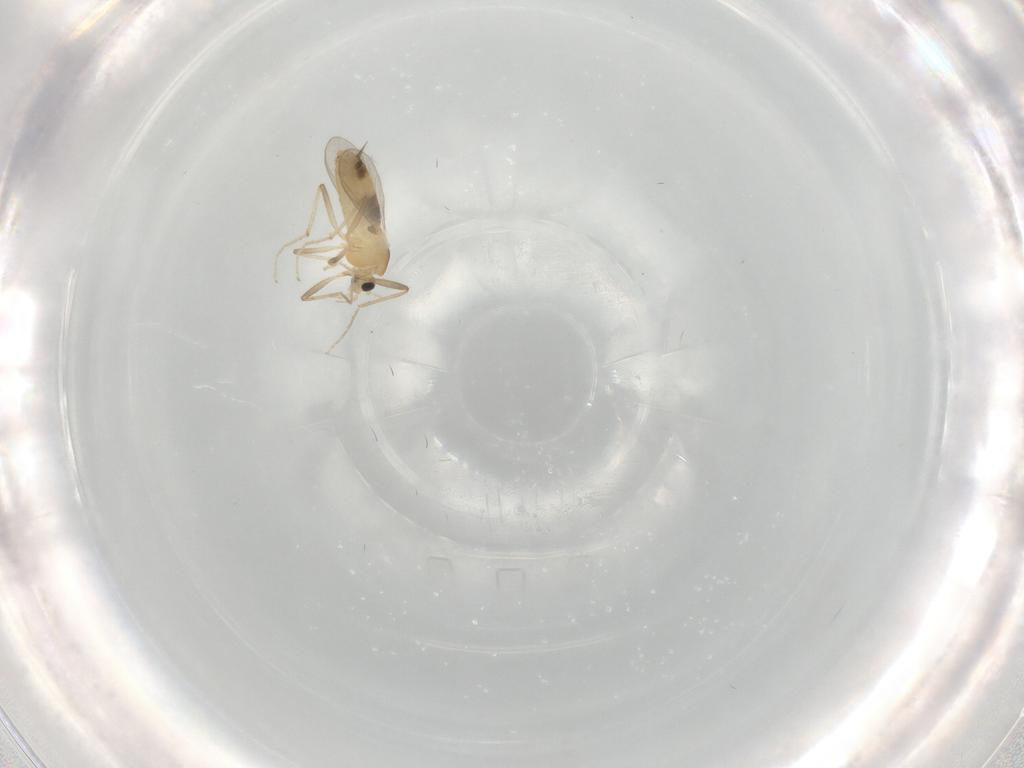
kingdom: Animalia
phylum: Arthropoda
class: Insecta
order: Diptera
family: Chironomidae
